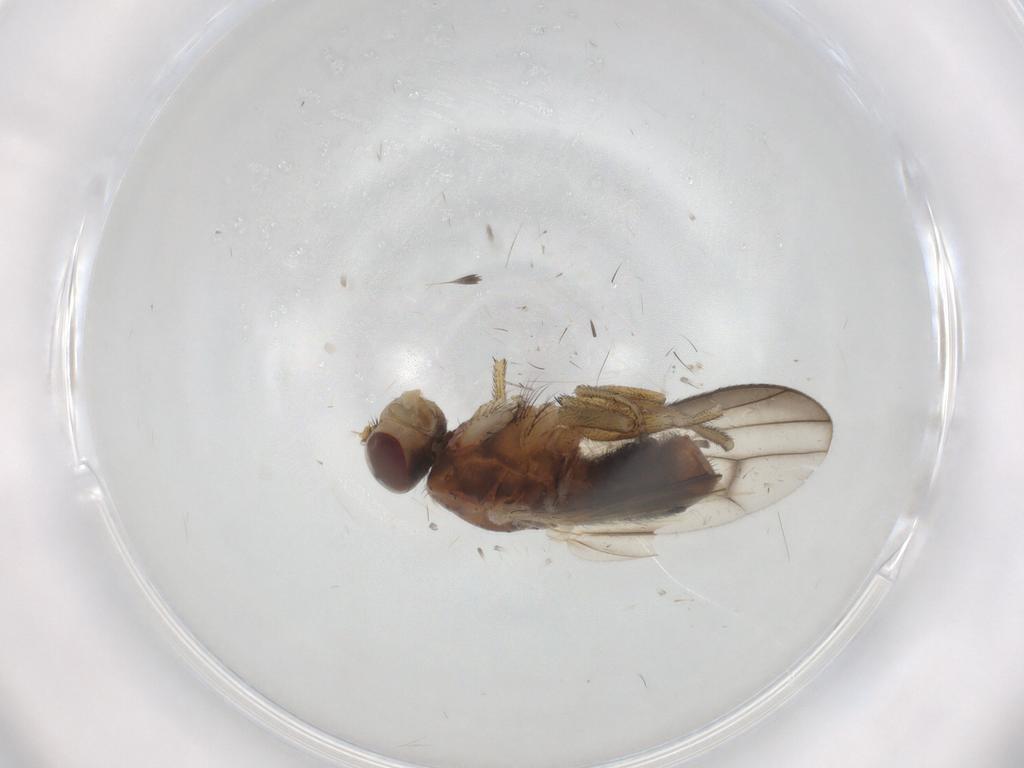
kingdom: Animalia
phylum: Arthropoda
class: Insecta
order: Diptera
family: Heleomyzidae
